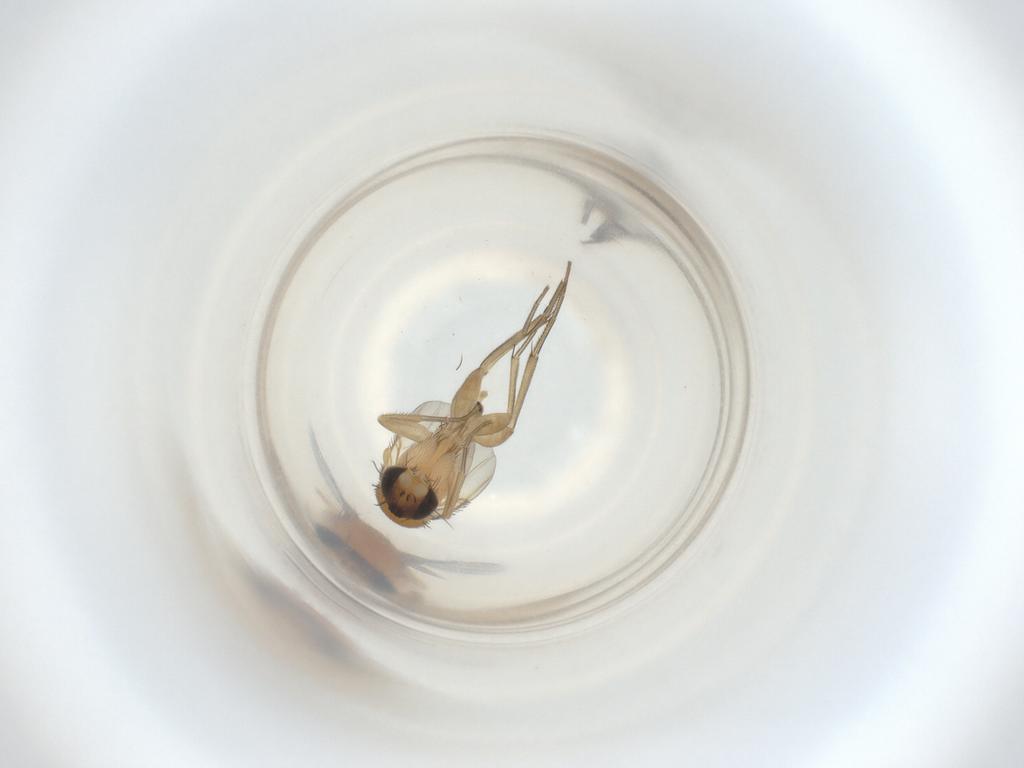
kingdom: Animalia
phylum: Arthropoda
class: Insecta
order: Diptera
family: Phoridae
